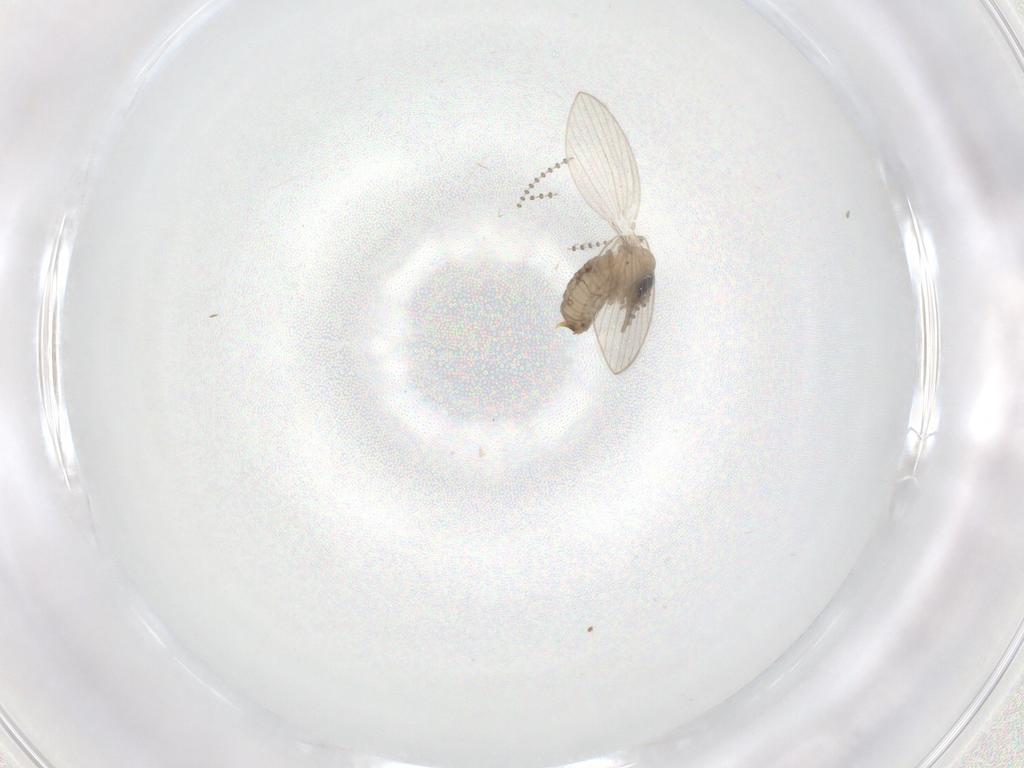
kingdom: Animalia
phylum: Arthropoda
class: Insecta
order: Diptera
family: Psychodidae
